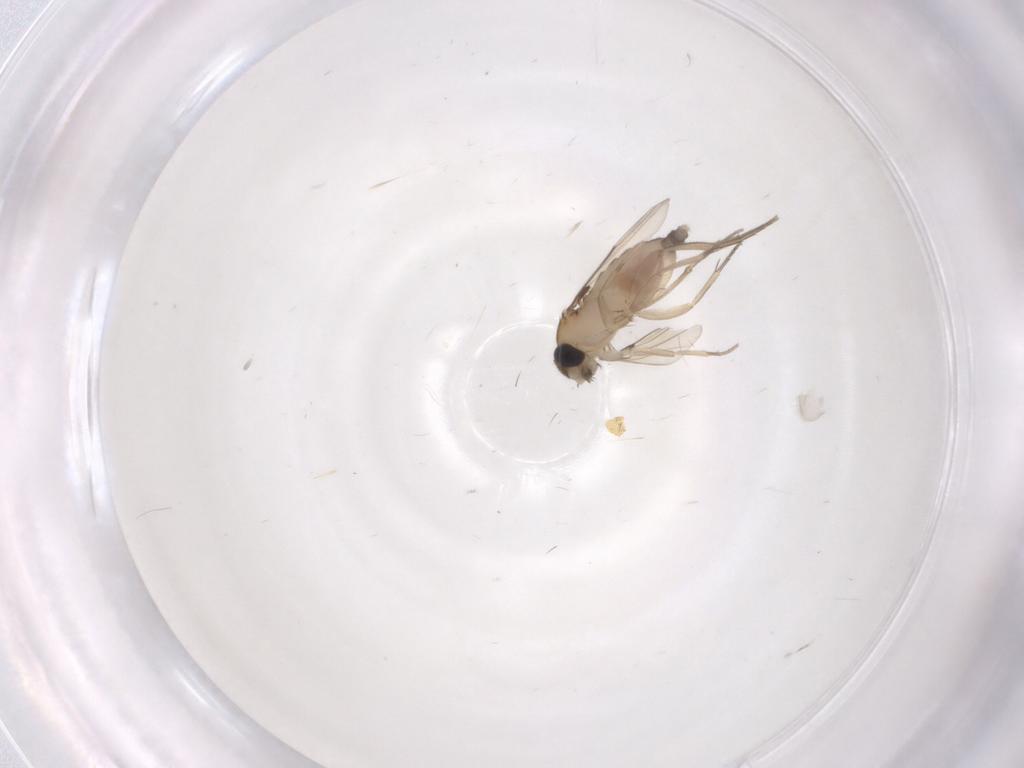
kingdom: Animalia
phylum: Arthropoda
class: Insecta
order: Diptera
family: Phoridae
